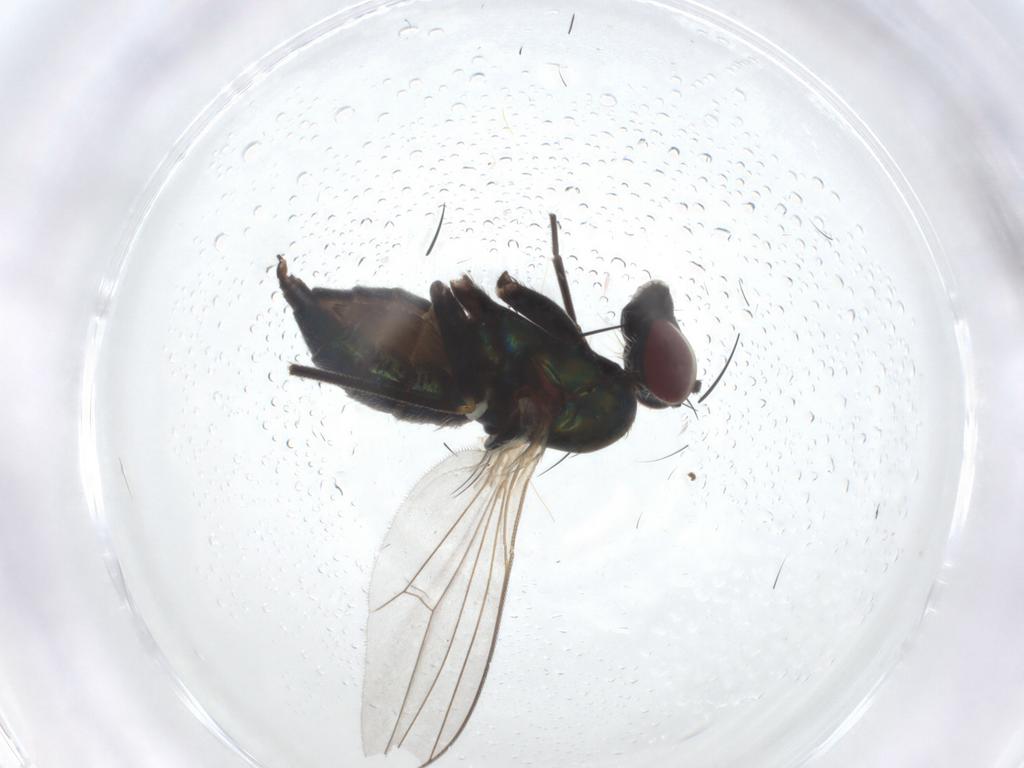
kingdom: Animalia
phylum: Arthropoda
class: Insecta
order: Diptera
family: Dolichopodidae
